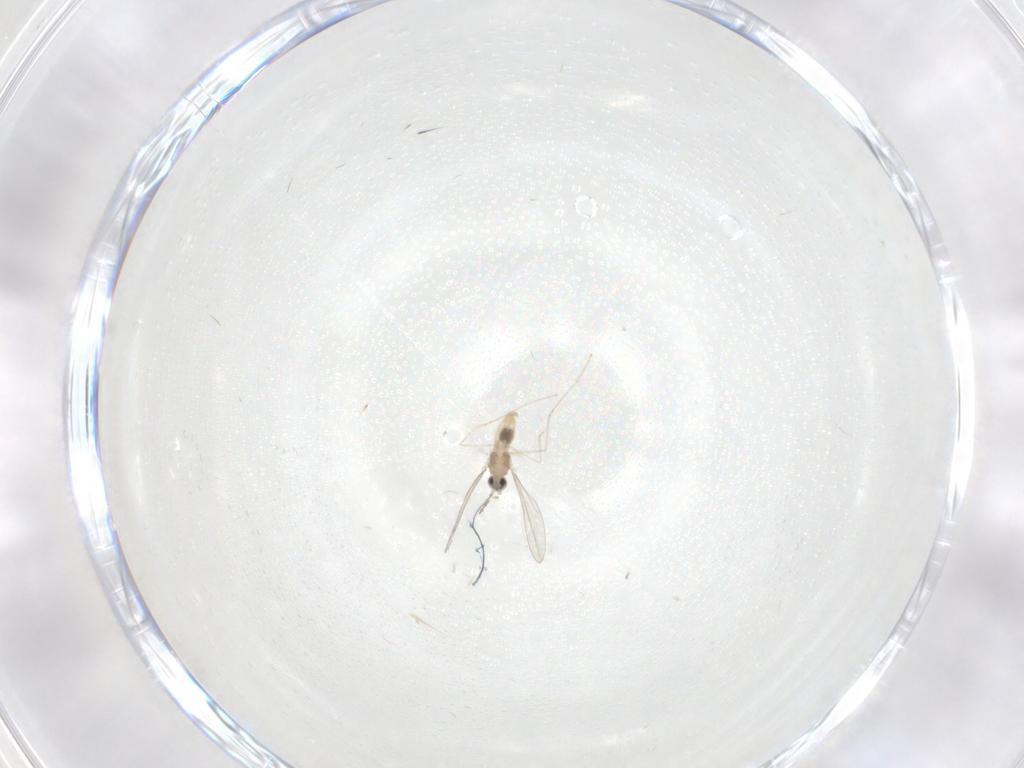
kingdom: Animalia
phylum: Arthropoda
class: Insecta
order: Diptera
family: Cecidomyiidae
